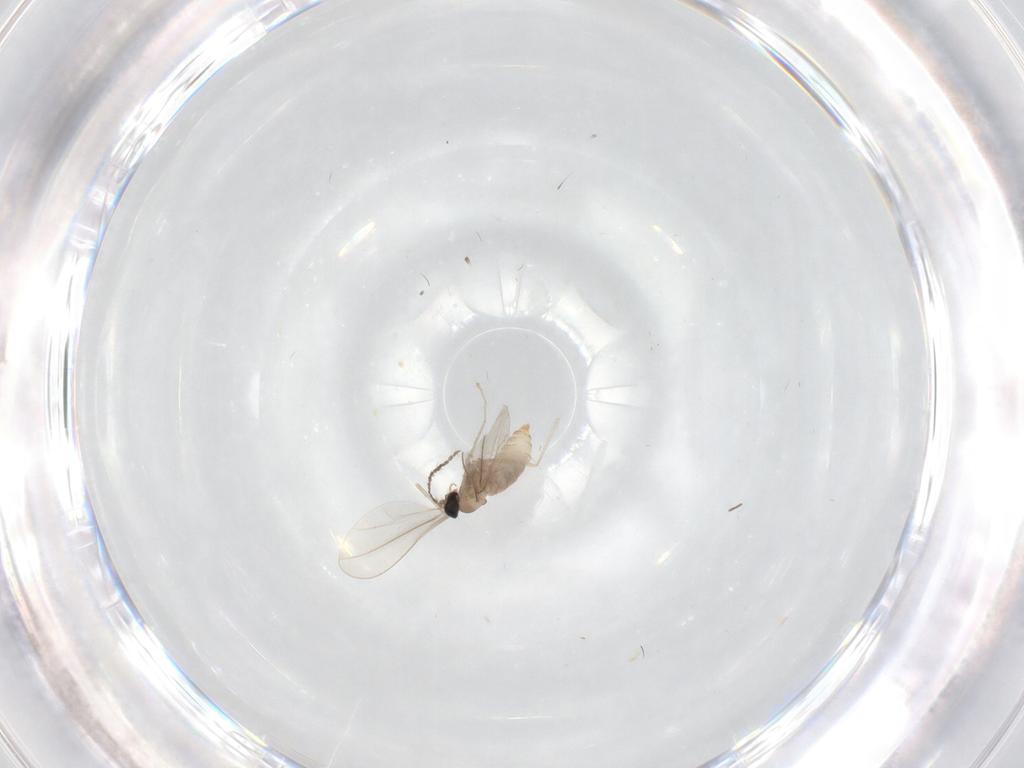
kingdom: Animalia
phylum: Arthropoda
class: Insecta
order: Diptera
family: Cecidomyiidae
